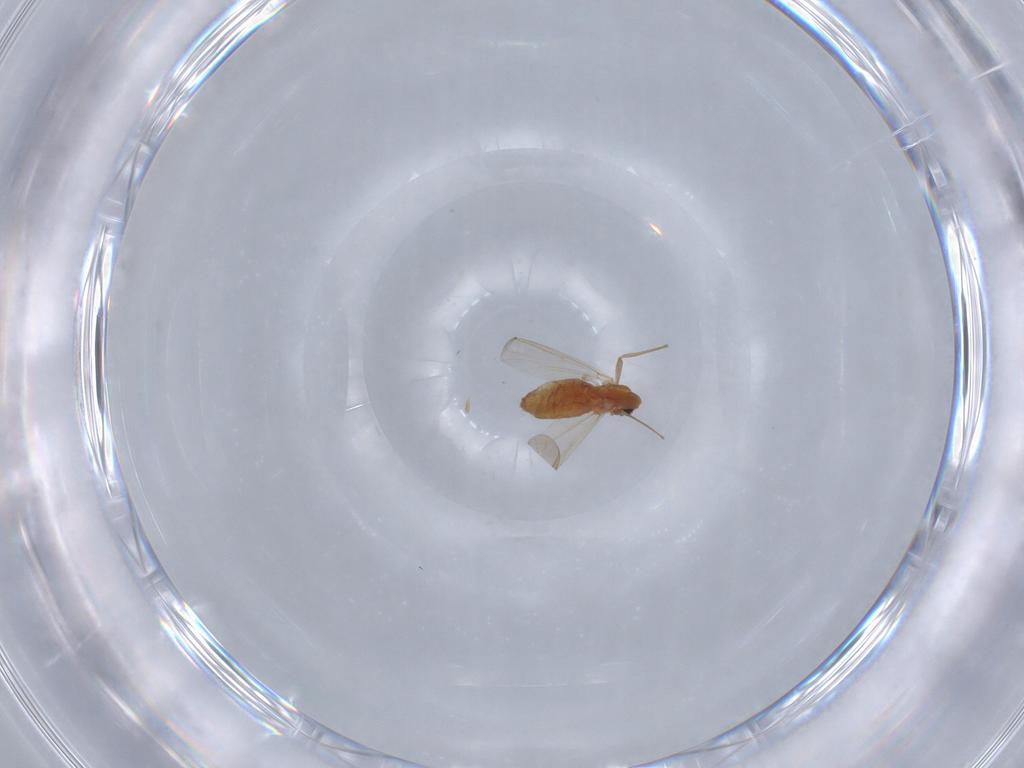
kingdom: Animalia
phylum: Arthropoda
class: Insecta
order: Diptera
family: Chironomidae
